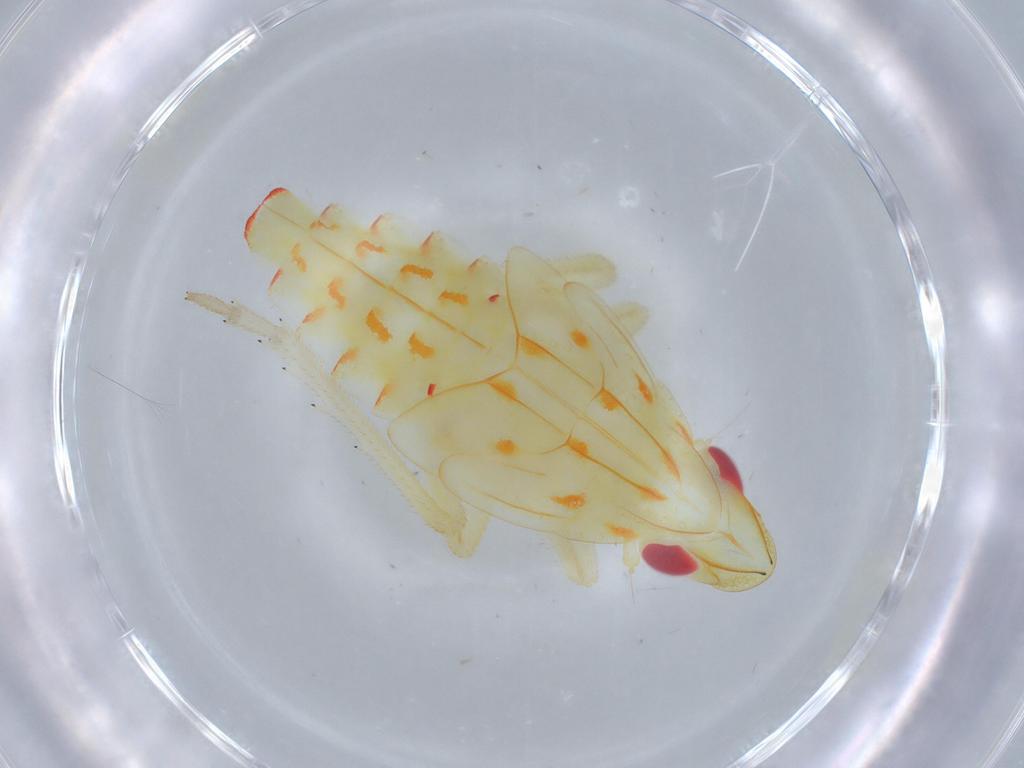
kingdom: Animalia
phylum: Arthropoda
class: Insecta
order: Hemiptera
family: Tropiduchidae
